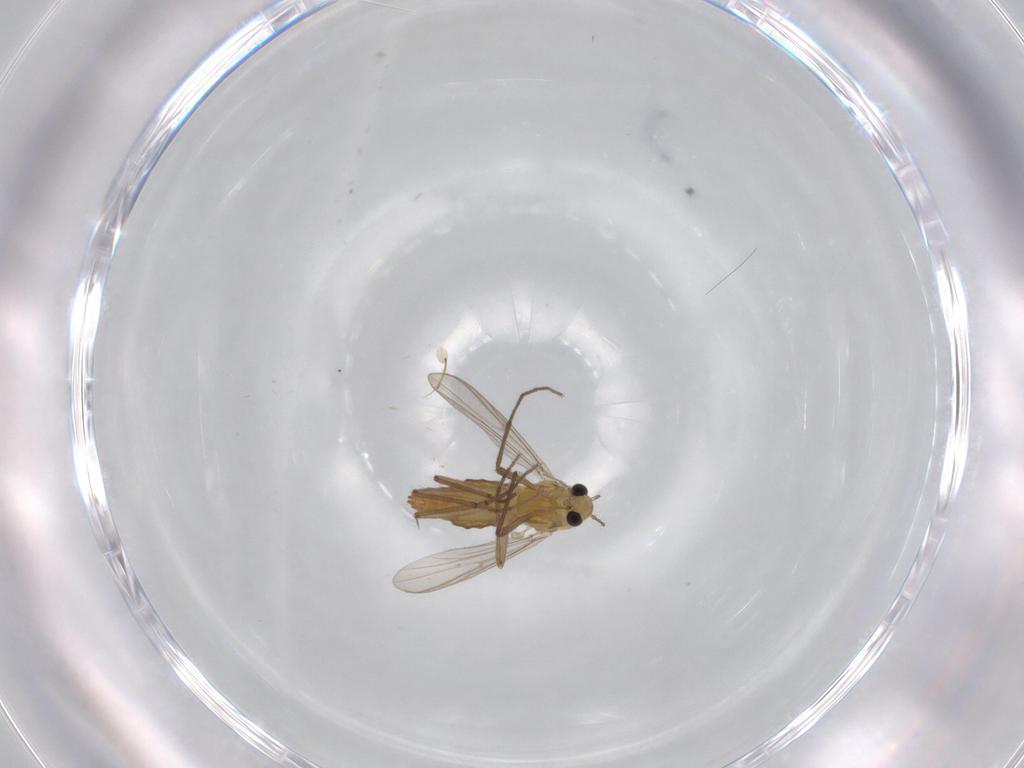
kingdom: Animalia
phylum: Arthropoda
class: Insecta
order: Diptera
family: Chironomidae
